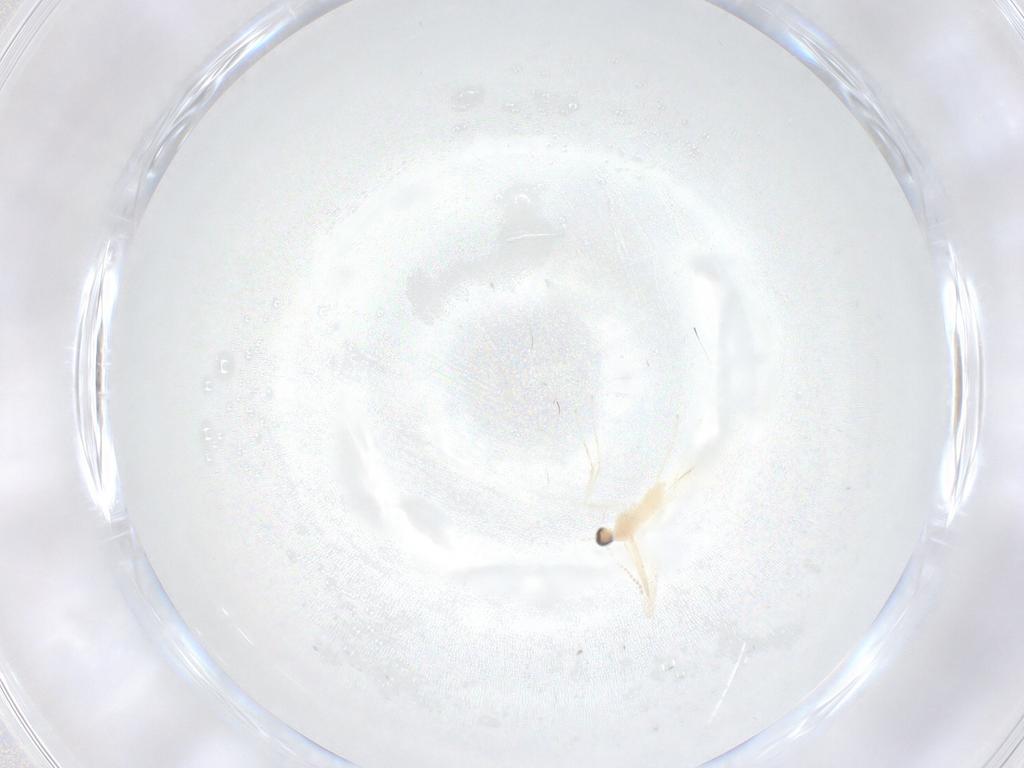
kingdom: Animalia
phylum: Arthropoda
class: Insecta
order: Diptera
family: Cecidomyiidae
